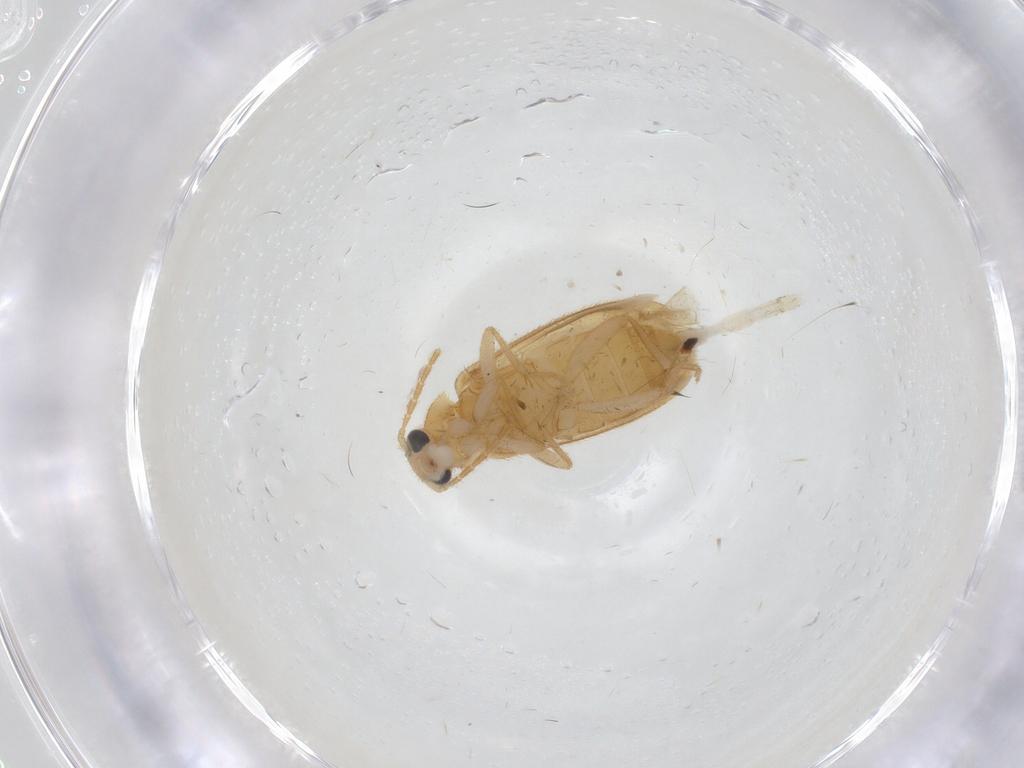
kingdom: Animalia
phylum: Arthropoda
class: Insecta
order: Coleoptera
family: Scraptiidae
